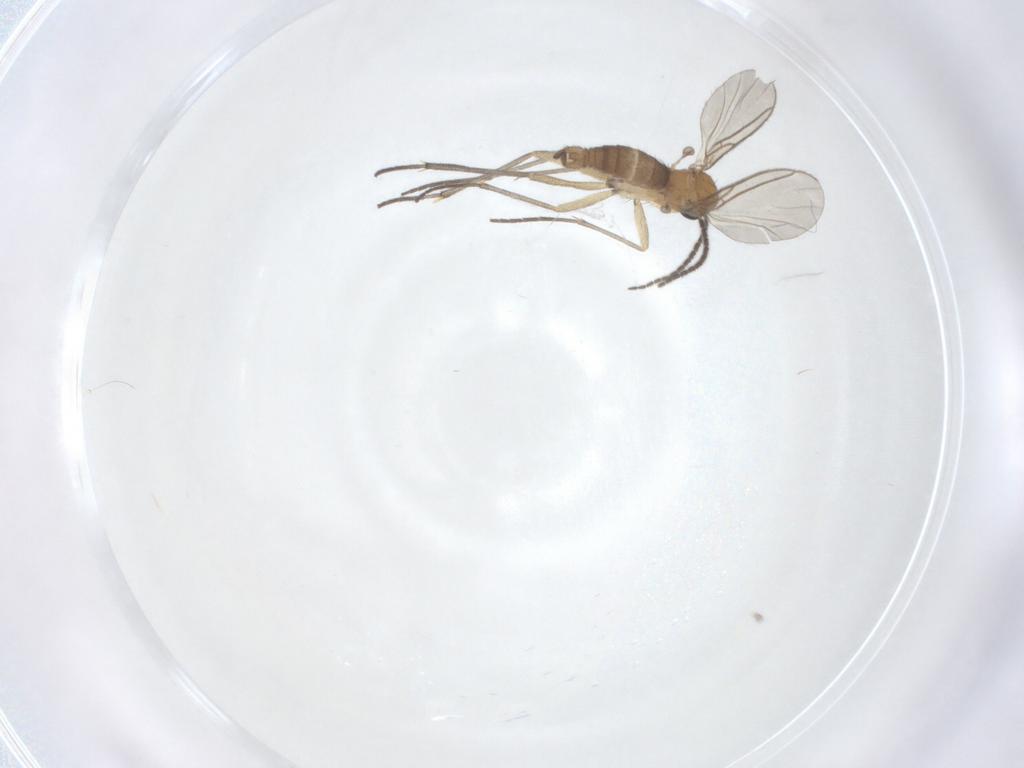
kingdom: Animalia
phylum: Arthropoda
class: Insecta
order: Diptera
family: Sciaridae
